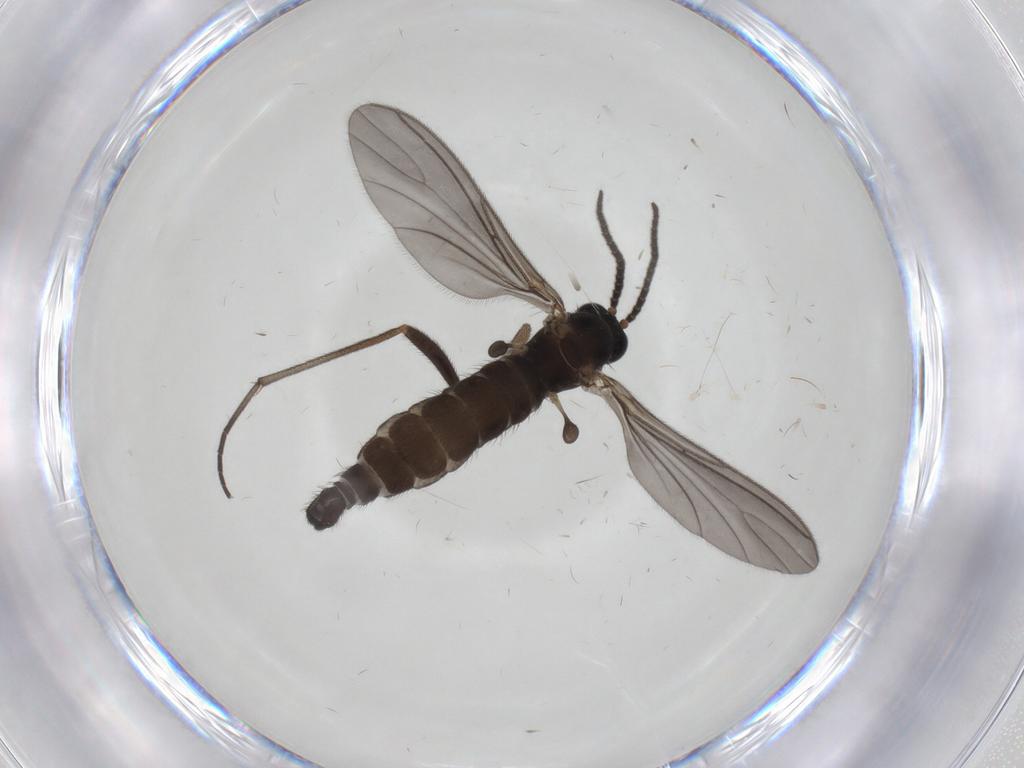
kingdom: Animalia
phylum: Arthropoda
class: Insecta
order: Diptera
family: Sciaridae
